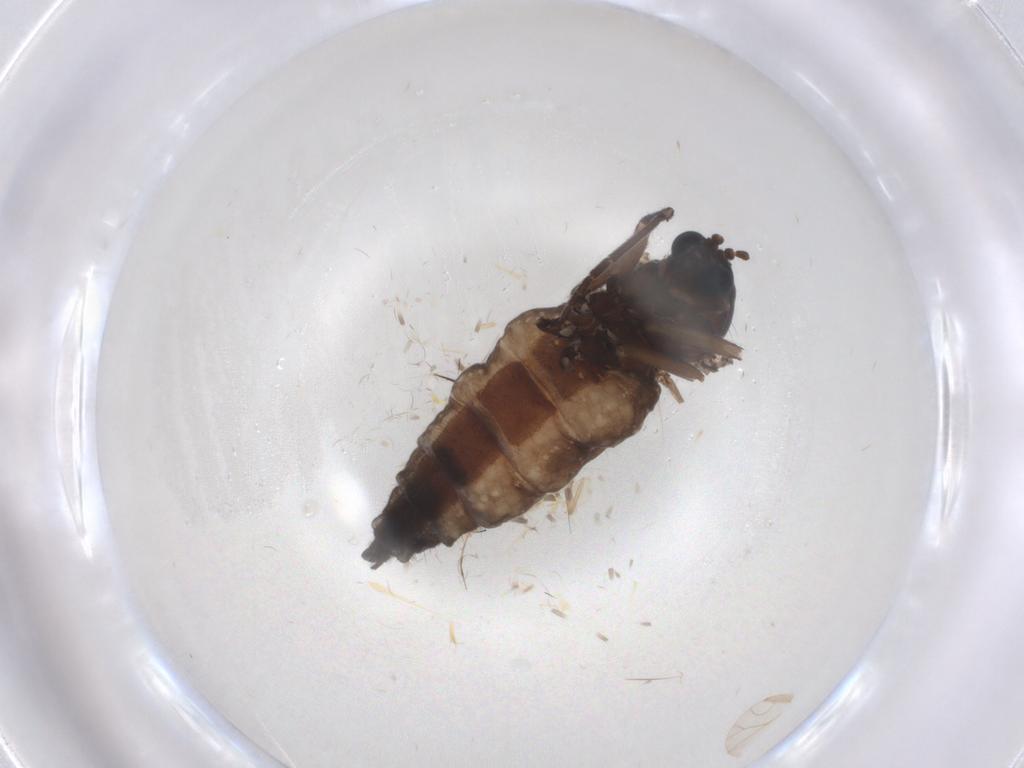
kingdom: Animalia
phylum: Arthropoda
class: Insecta
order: Diptera
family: Sciaridae
